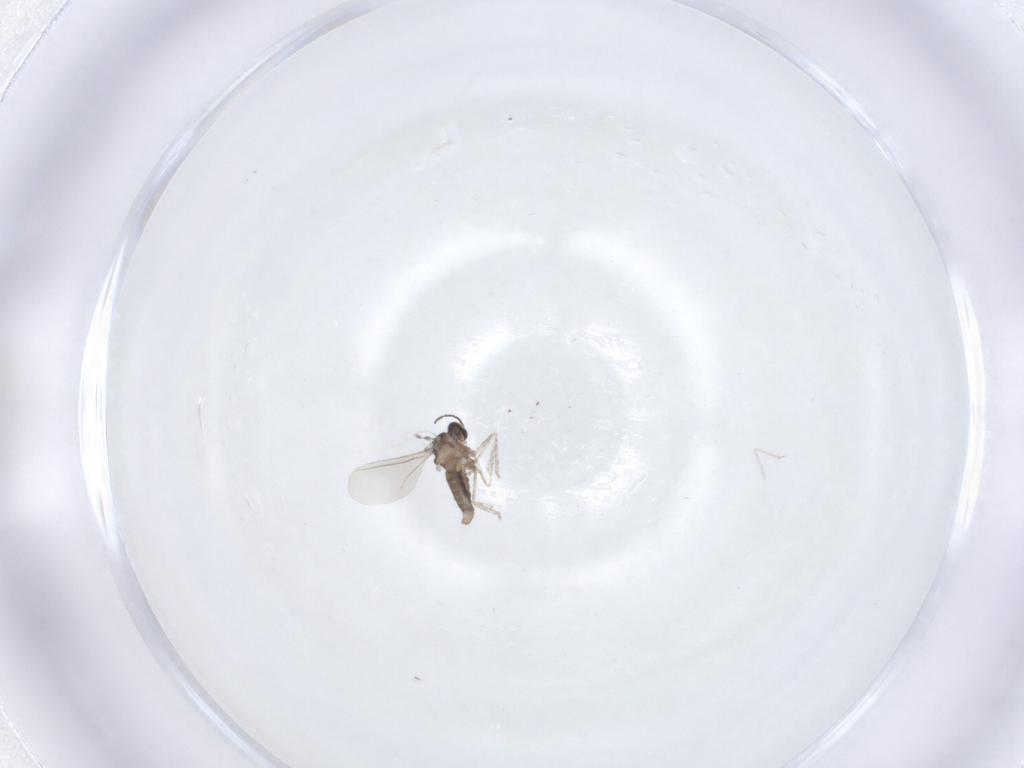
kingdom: Animalia
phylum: Arthropoda
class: Insecta
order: Diptera
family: Cecidomyiidae
